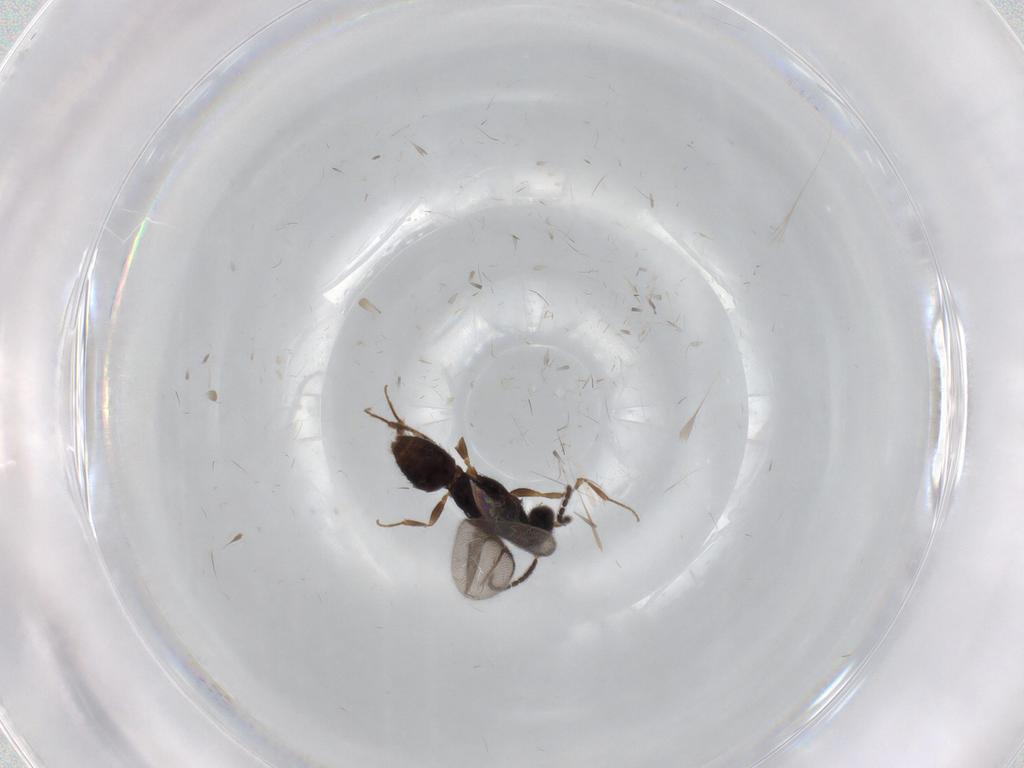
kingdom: Animalia
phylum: Arthropoda
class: Insecta
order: Hymenoptera
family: Bethylidae
